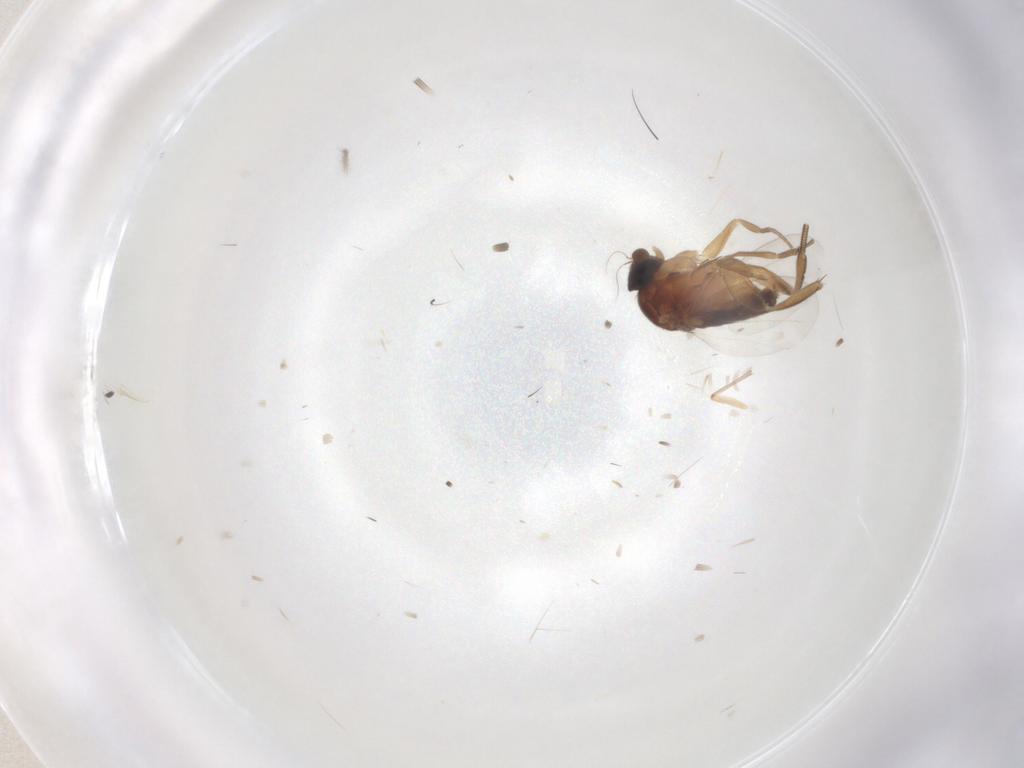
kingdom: Animalia
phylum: Arthropoda
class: Insecta
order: Diptera
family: Phoridae
